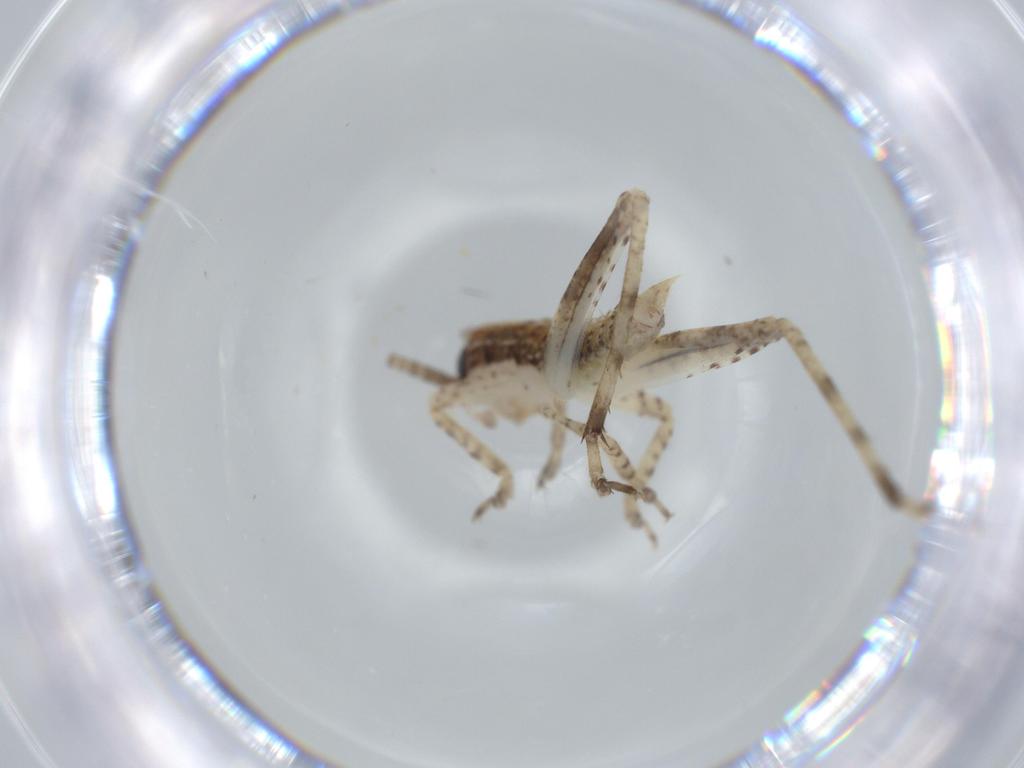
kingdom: Animalia
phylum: Arthropoda
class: Insecta
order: Orthoptera
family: Gryllidae
